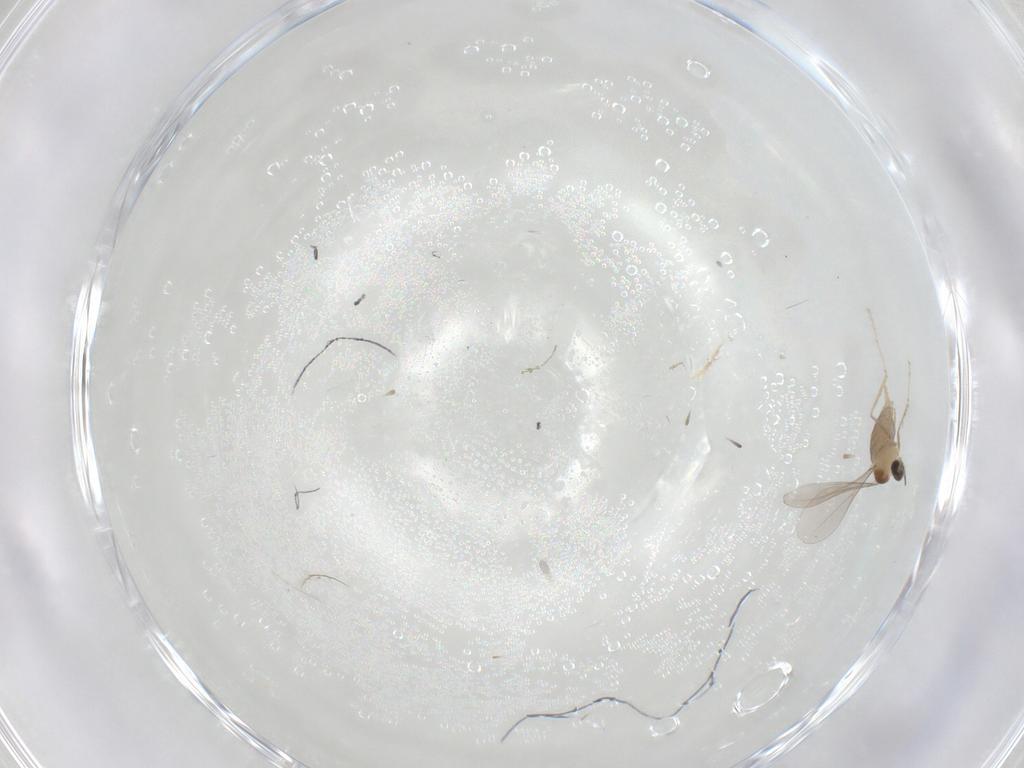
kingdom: Animalia
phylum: Arthropoda
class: Insecta
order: Diptera
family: Cecidomyiidae
